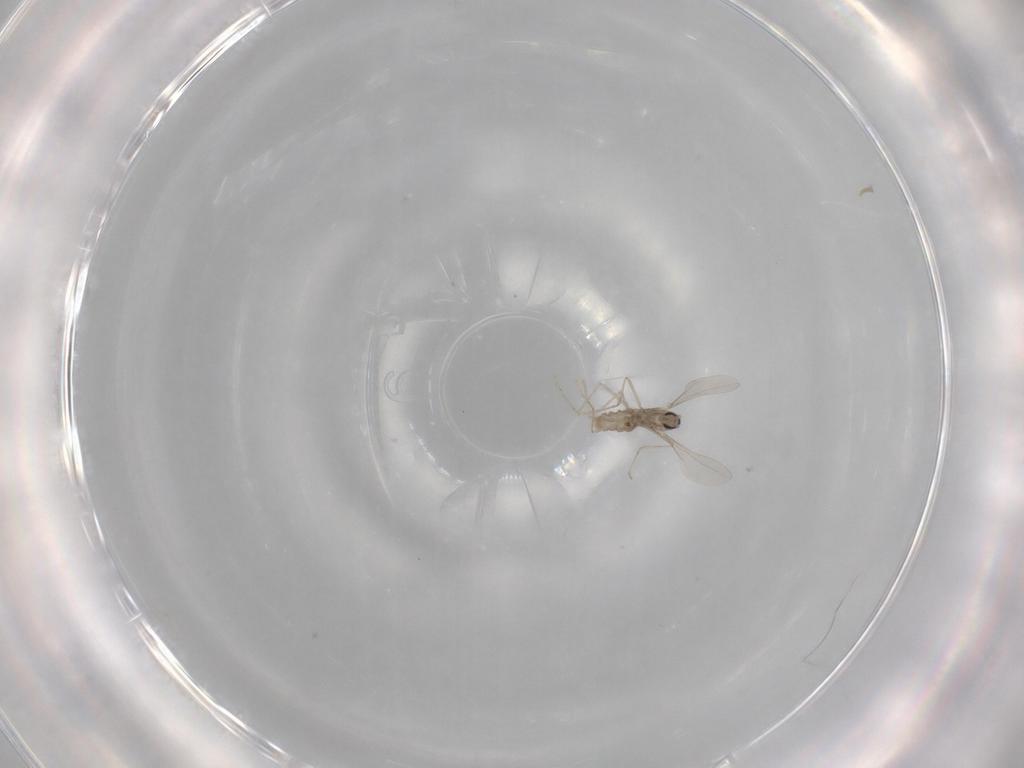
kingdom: Animalia
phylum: Arthropoda
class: Insecta
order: Diptera
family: Cecidomyiidae
